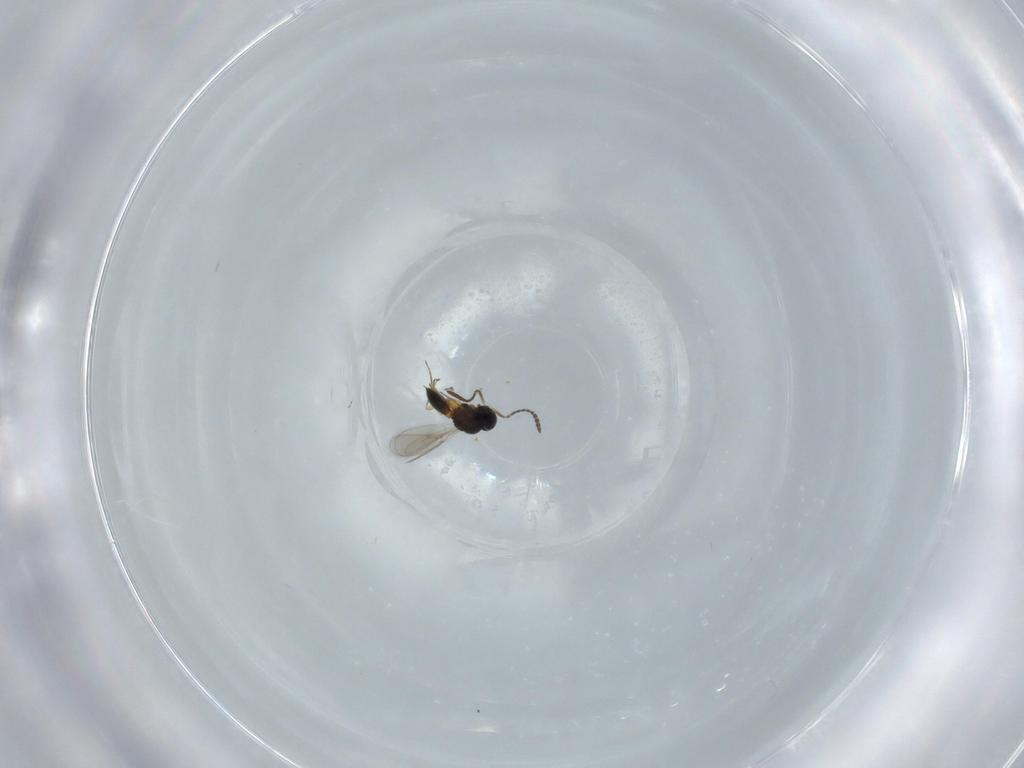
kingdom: Animalia
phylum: Arthropoda
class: Insecta
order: Hymenoptera
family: Scelionidae
